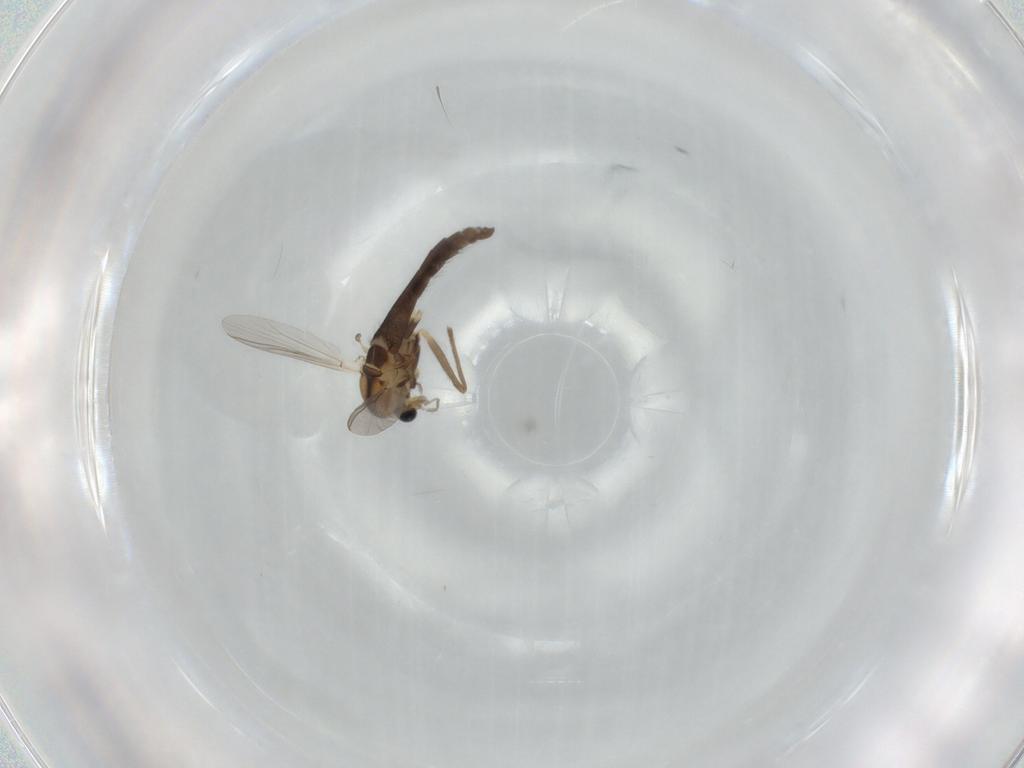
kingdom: Animalia
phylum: Arthropoda
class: Insecta
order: Diptera
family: Chironomidae
